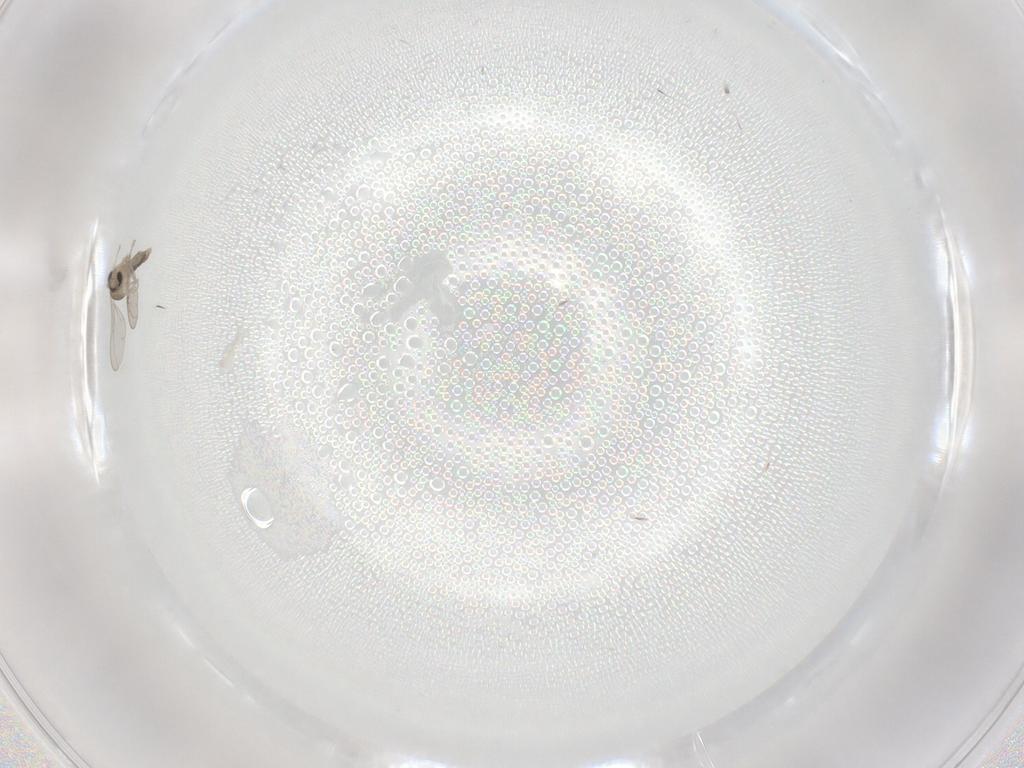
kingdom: Animalia
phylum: Arthropoda
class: Insecta
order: Diptera
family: Cecidomyiidae
